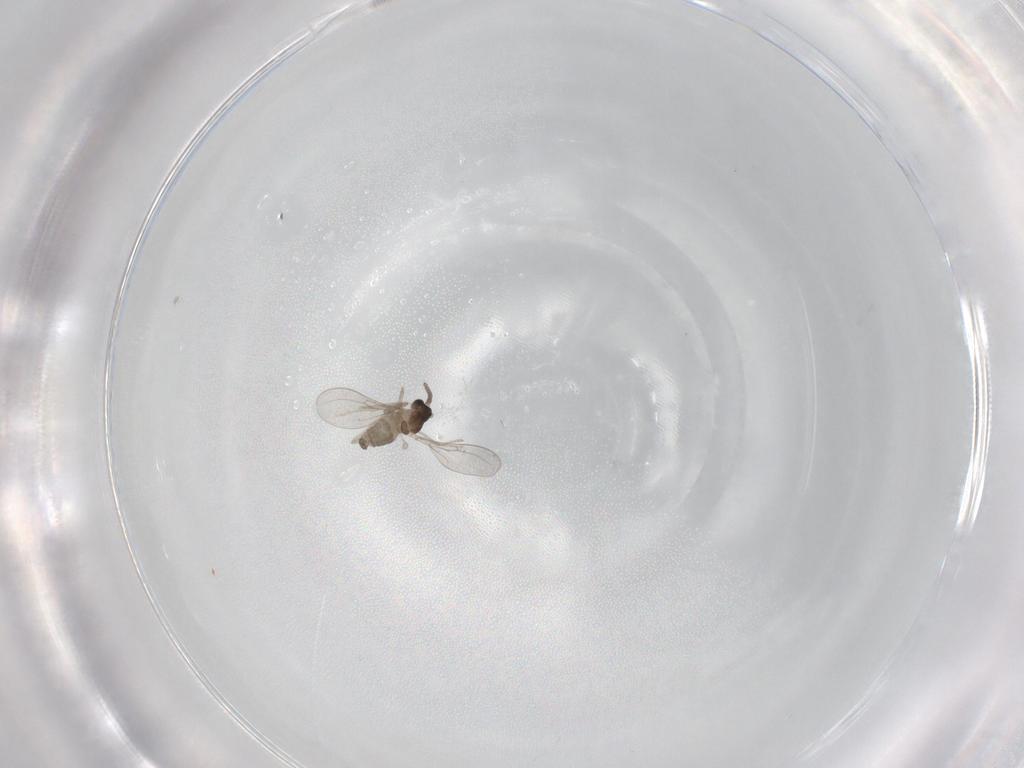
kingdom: Animalia
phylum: Arthropoda
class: Insecta
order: Diptera
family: Cecidomyiidae
